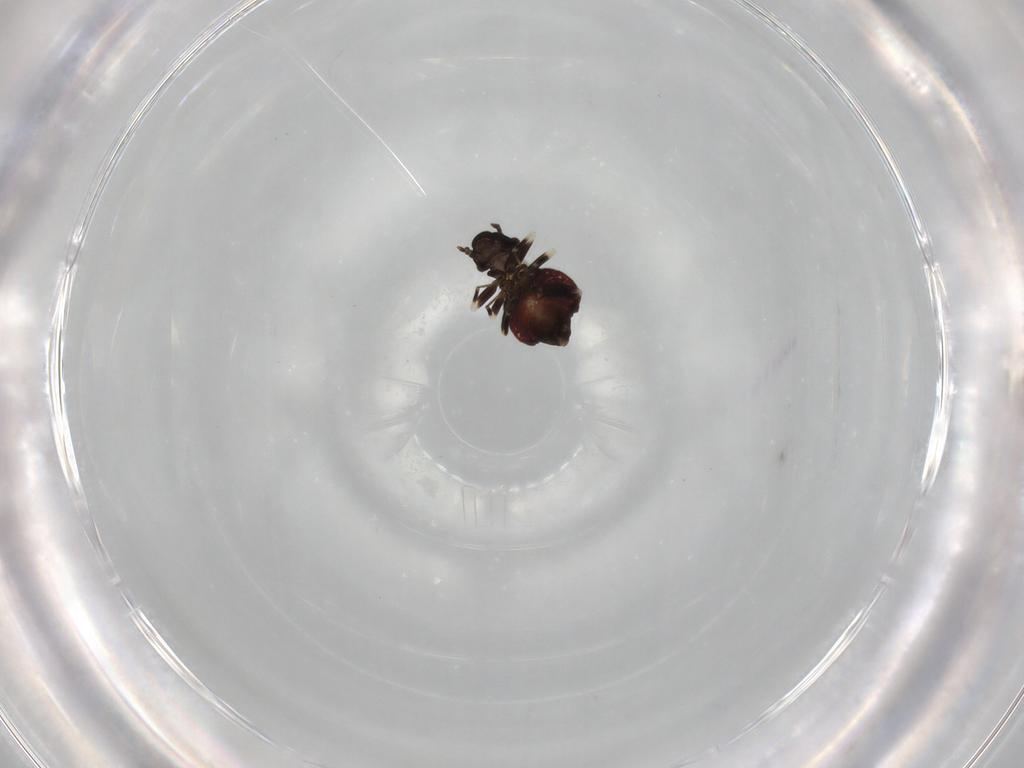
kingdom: Animalia
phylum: Arthropoda
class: Insecta
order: Psocodea
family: Lepidopsocidae
